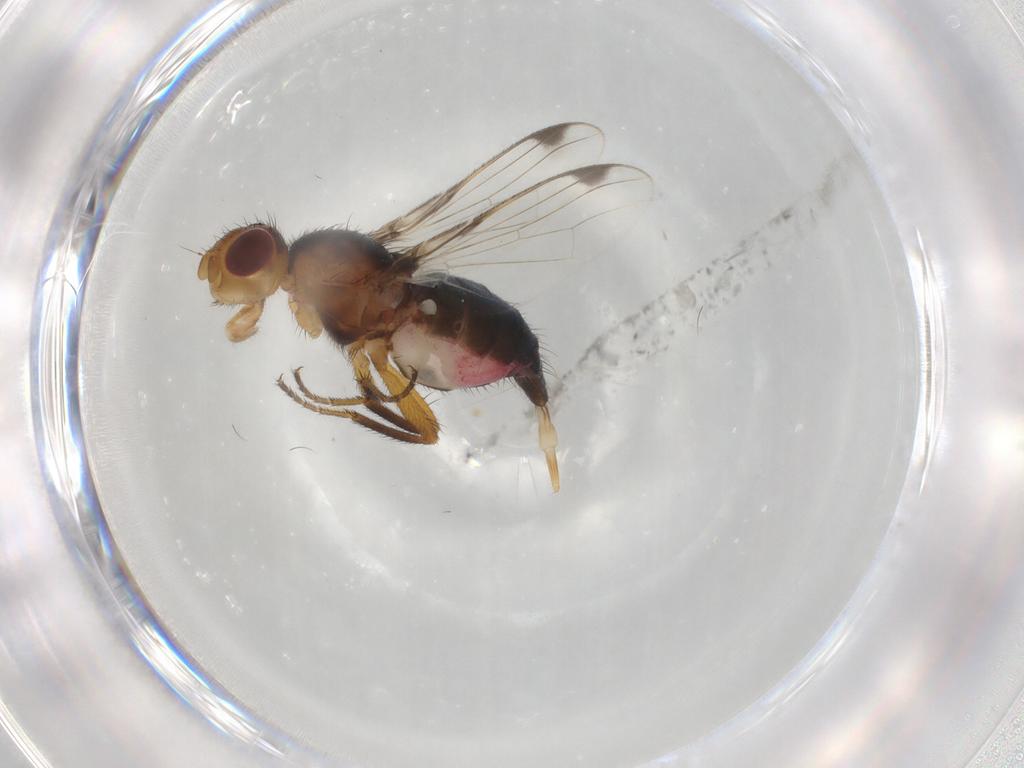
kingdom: Animalia
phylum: Arthropoda
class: Insecta
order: Diptera
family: Richardiidae
